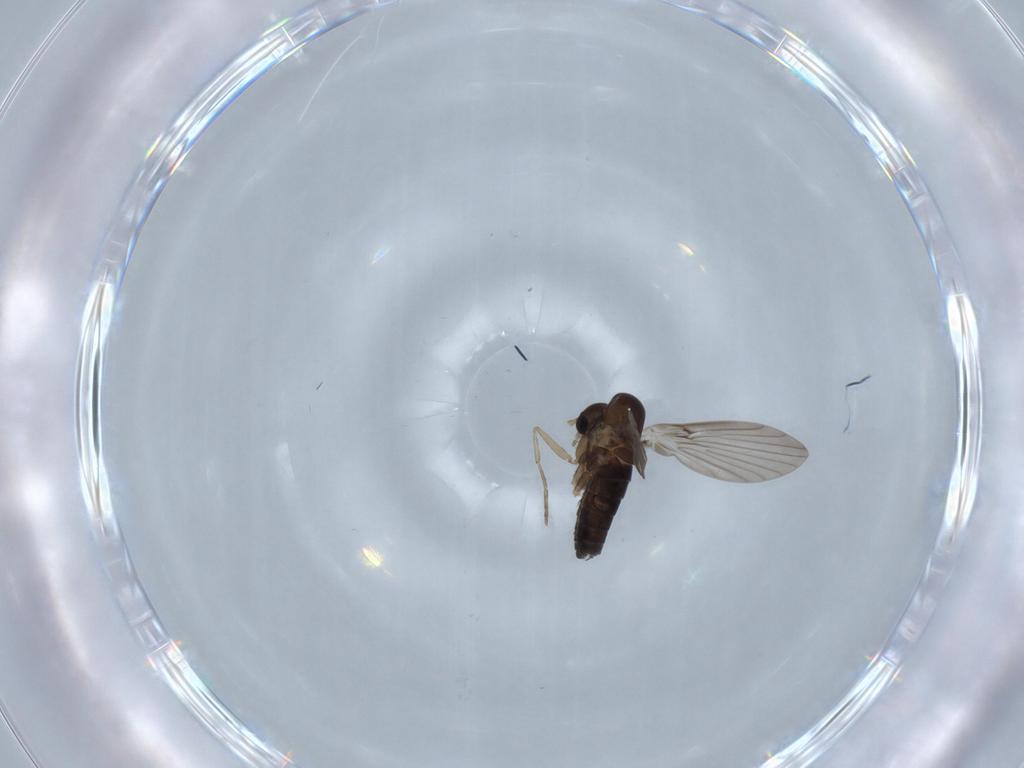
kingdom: Animalia
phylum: Arthropoda
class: Insecta
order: Diptera
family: Psychodidae
